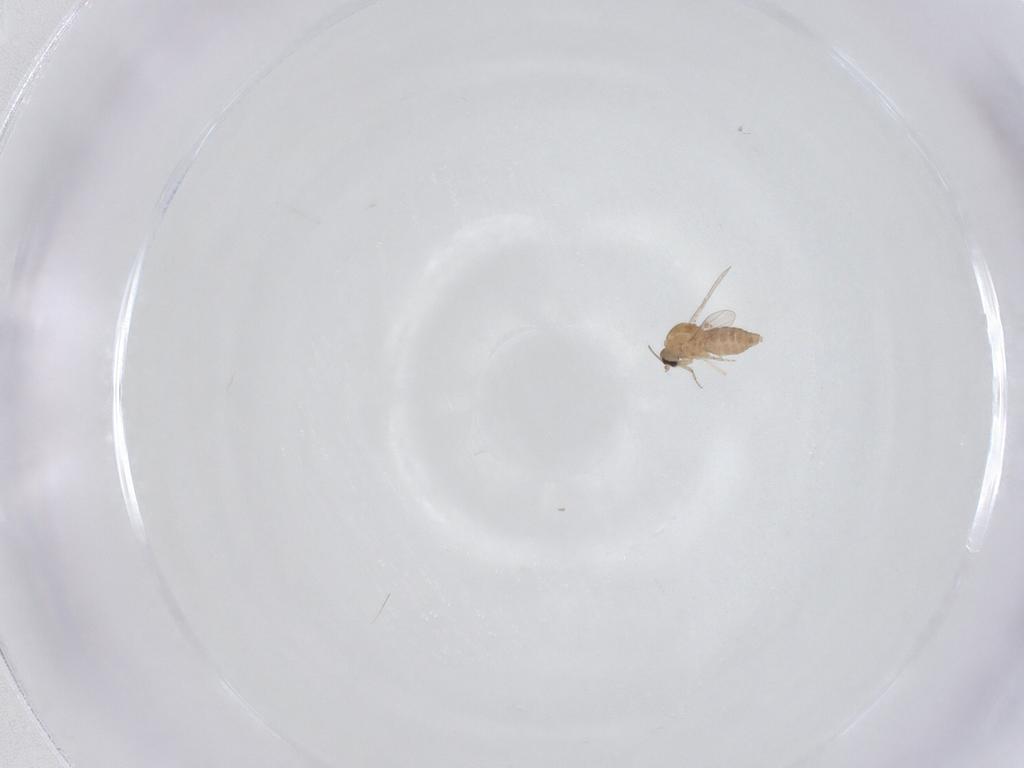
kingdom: Animalia
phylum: Arthropoda
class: Insecta
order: Diptera
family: Ceratopogonidae
